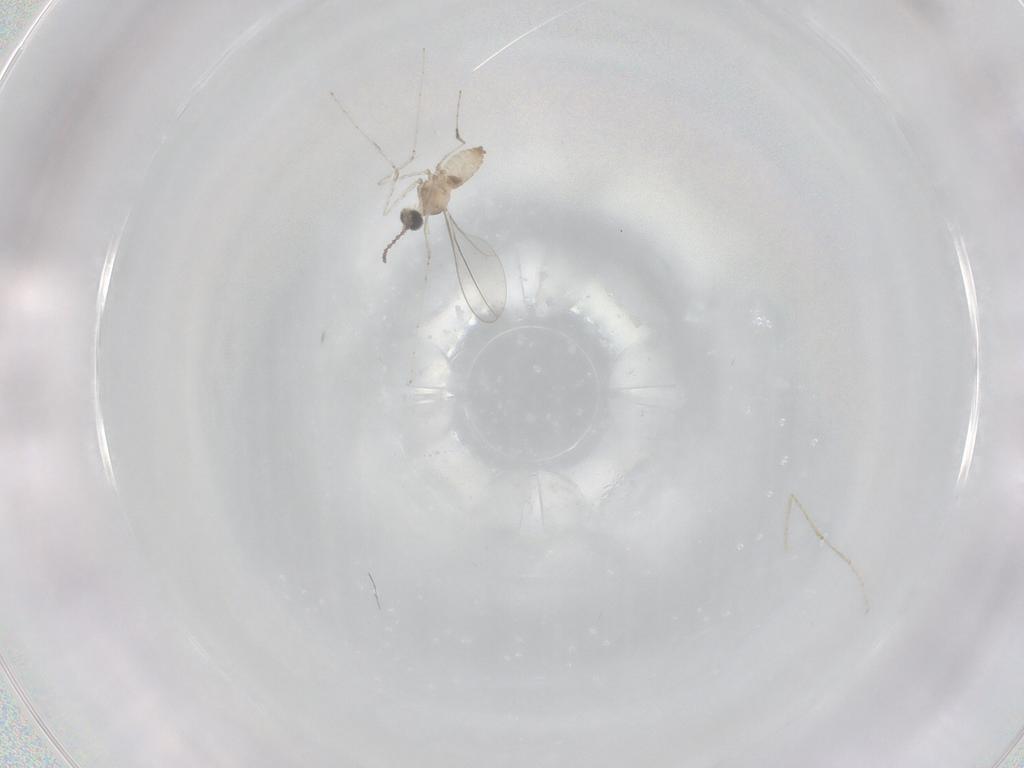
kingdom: Animalia
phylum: Arthropoda
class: Insecta
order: Diptera
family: Cecidomyiidae
